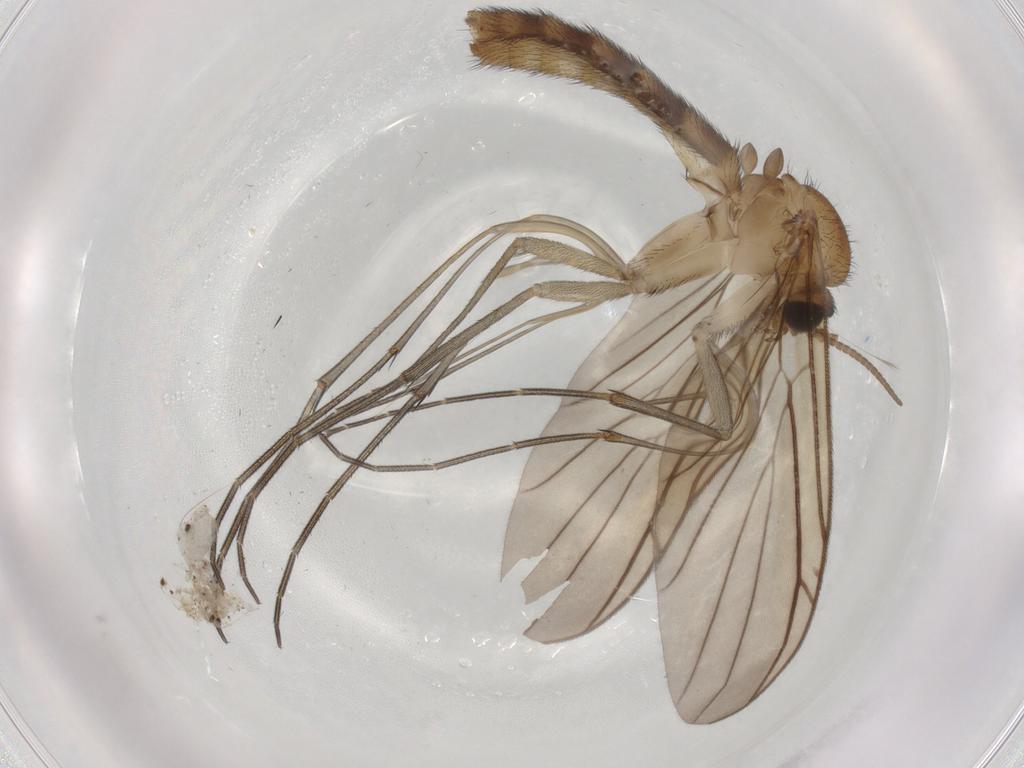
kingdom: Animalia
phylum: Arthropoda
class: Insecta
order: Diptera
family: Keroplatidae
